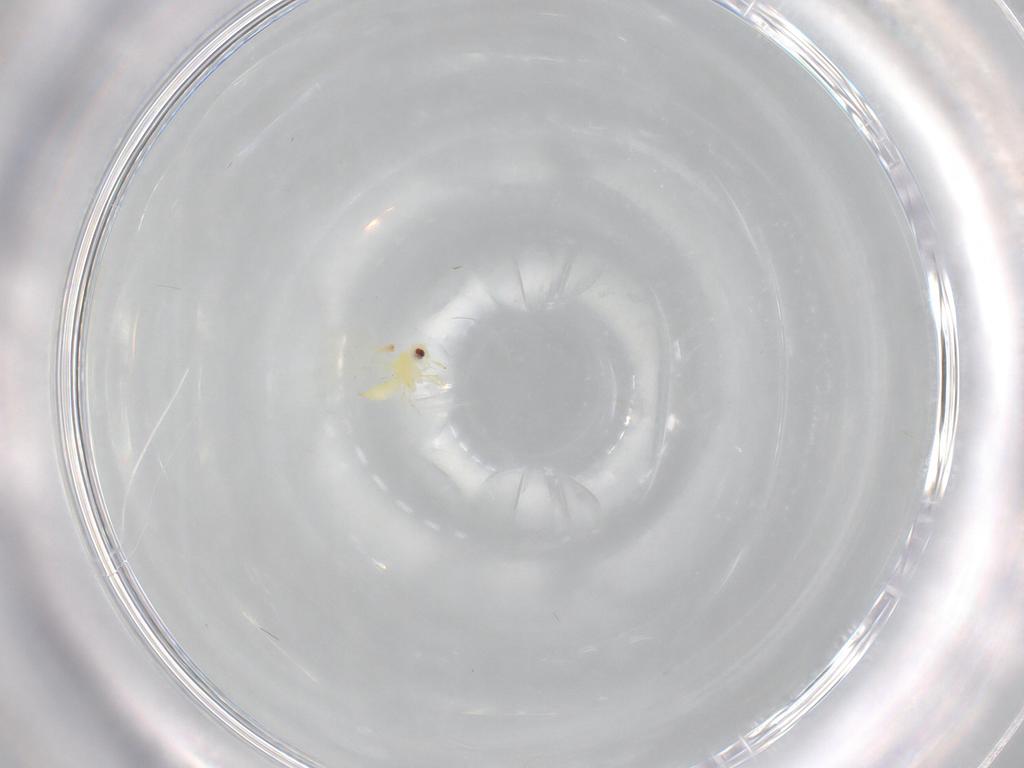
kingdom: Animalia
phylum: Arthropoda
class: Insecta
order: Hemiptera
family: Aleyrodidae
